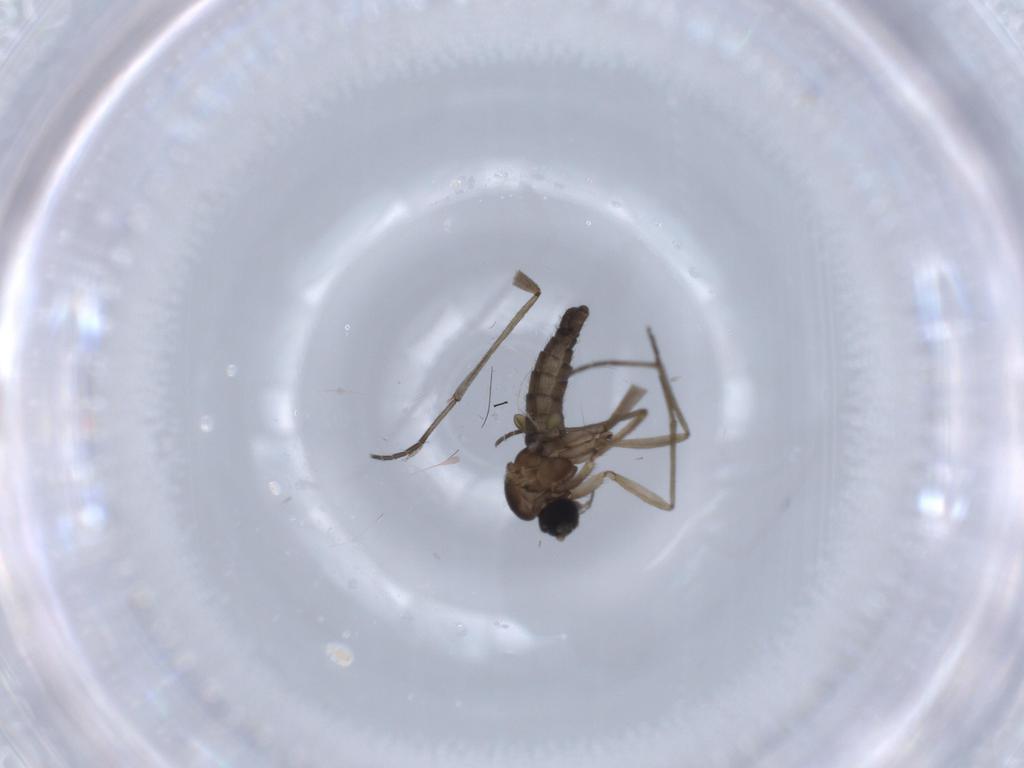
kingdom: Animalia
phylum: Arthropoda
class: Insecta
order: Diptera
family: Sciaridae
